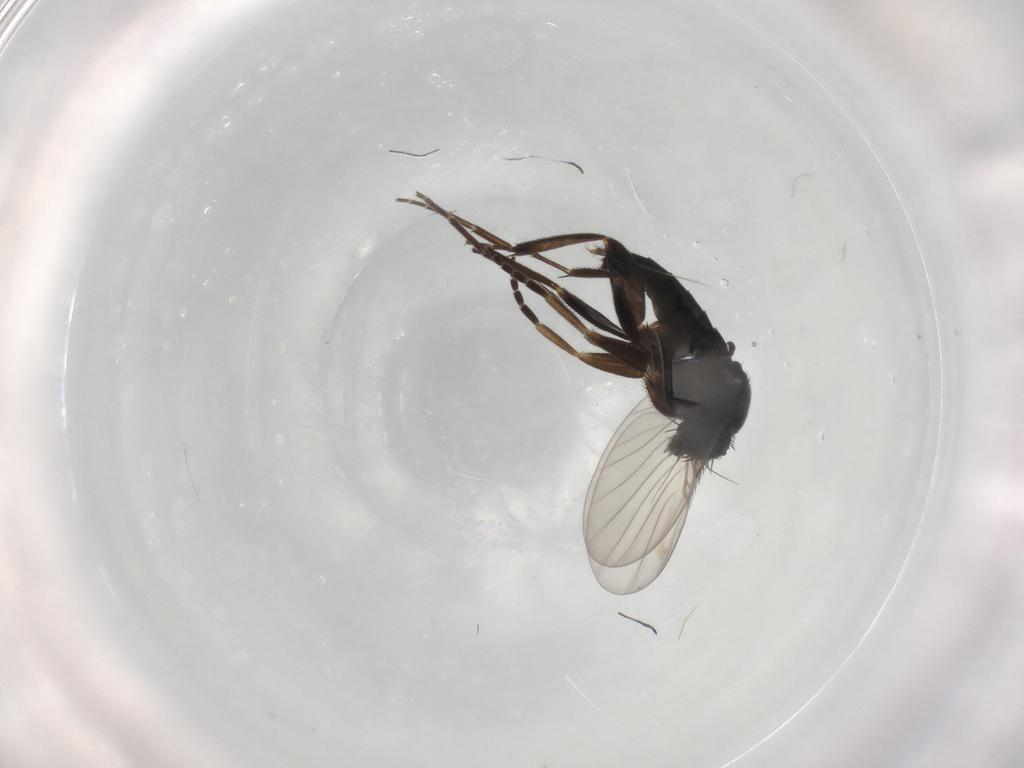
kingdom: Animalia
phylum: Arthropoda
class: Insecta
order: Diptera
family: Phoridae
